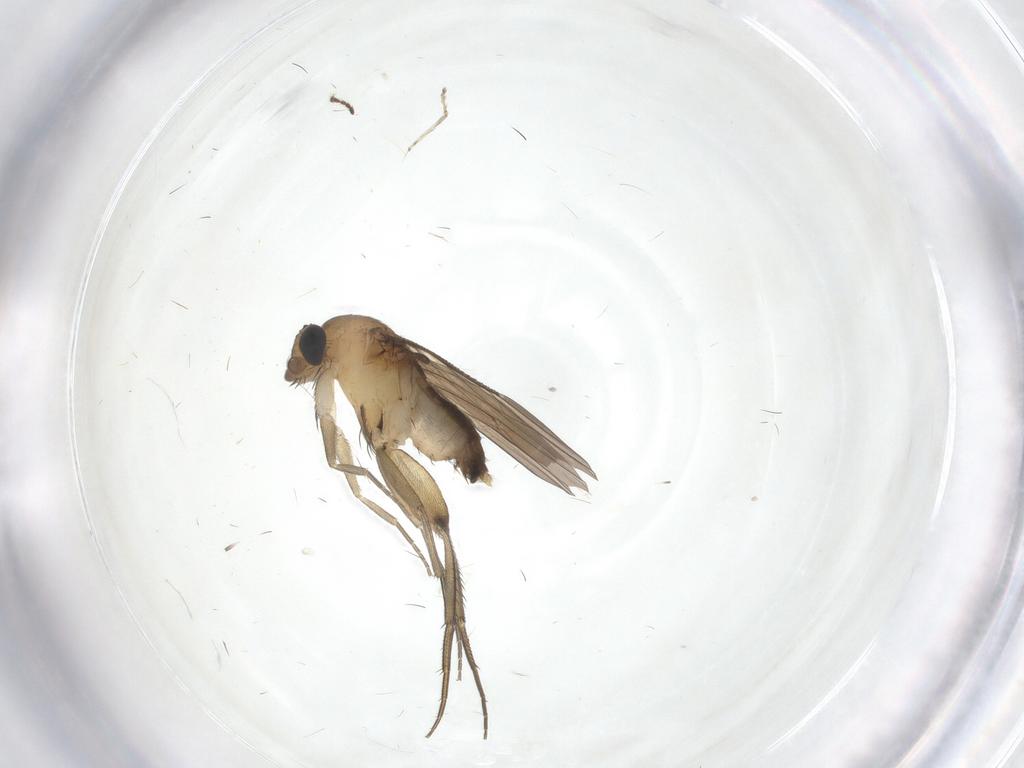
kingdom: Animalia
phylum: Arthropoda
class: Insecta
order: Diptera
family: Phoridae
